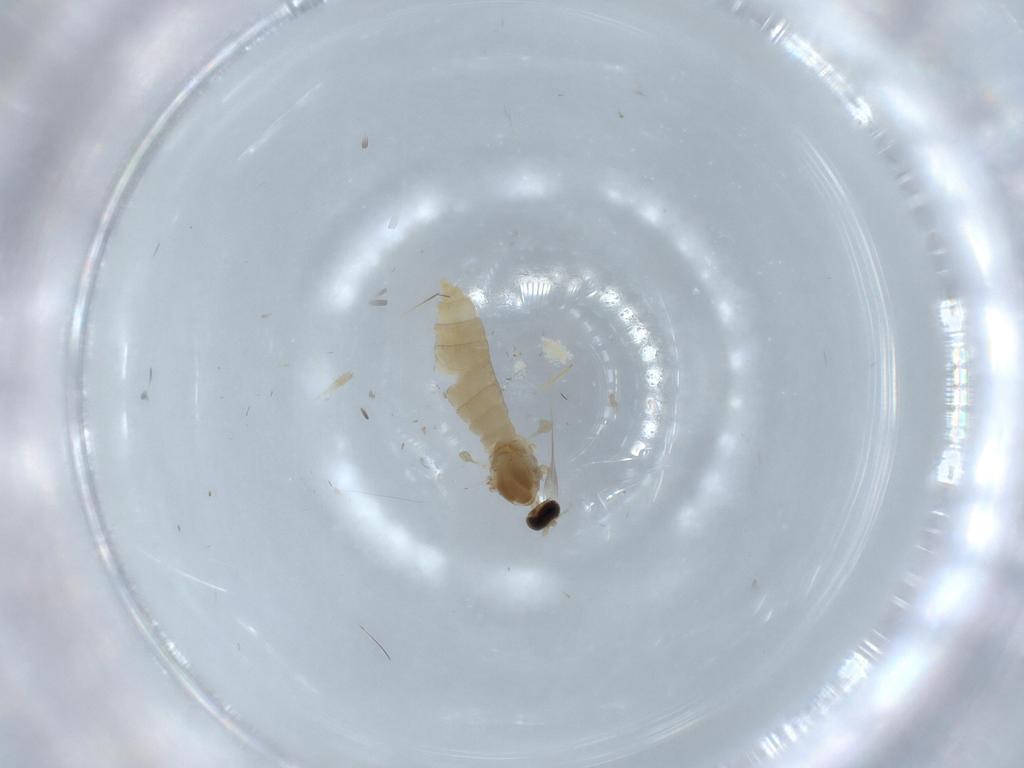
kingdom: Animalia
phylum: Arthropoda
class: Insecta
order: Diptera
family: Cecidomyiidae
